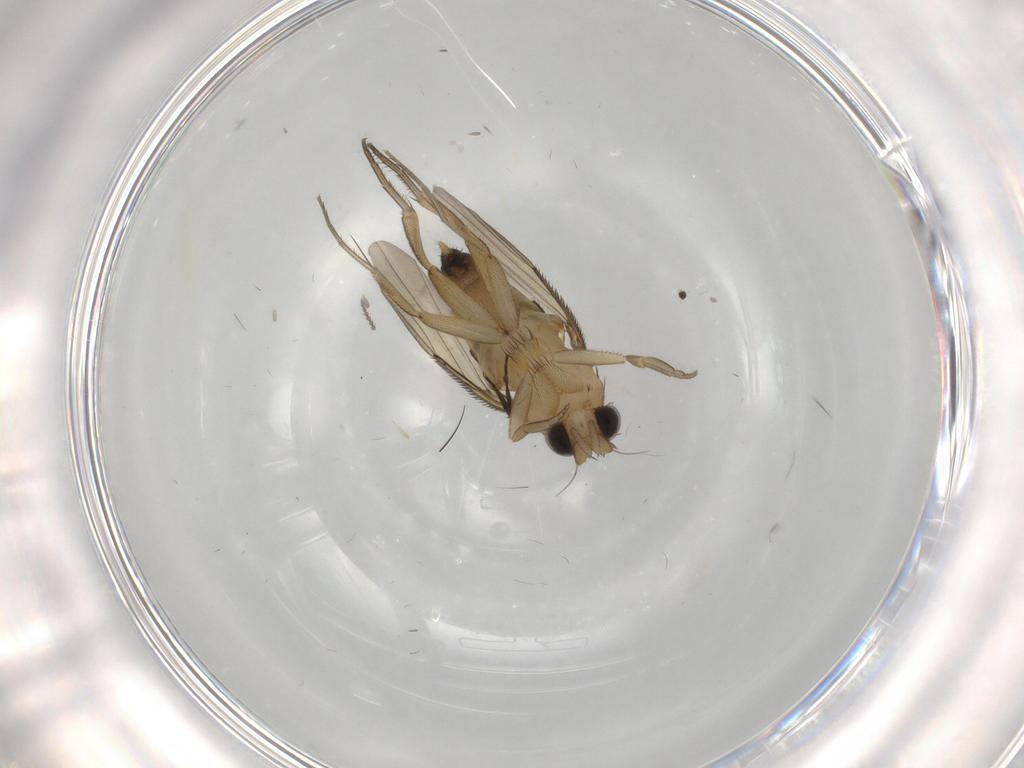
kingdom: Animalia
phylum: Arthropoda
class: Insecta
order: Diptera
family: Phoridae
